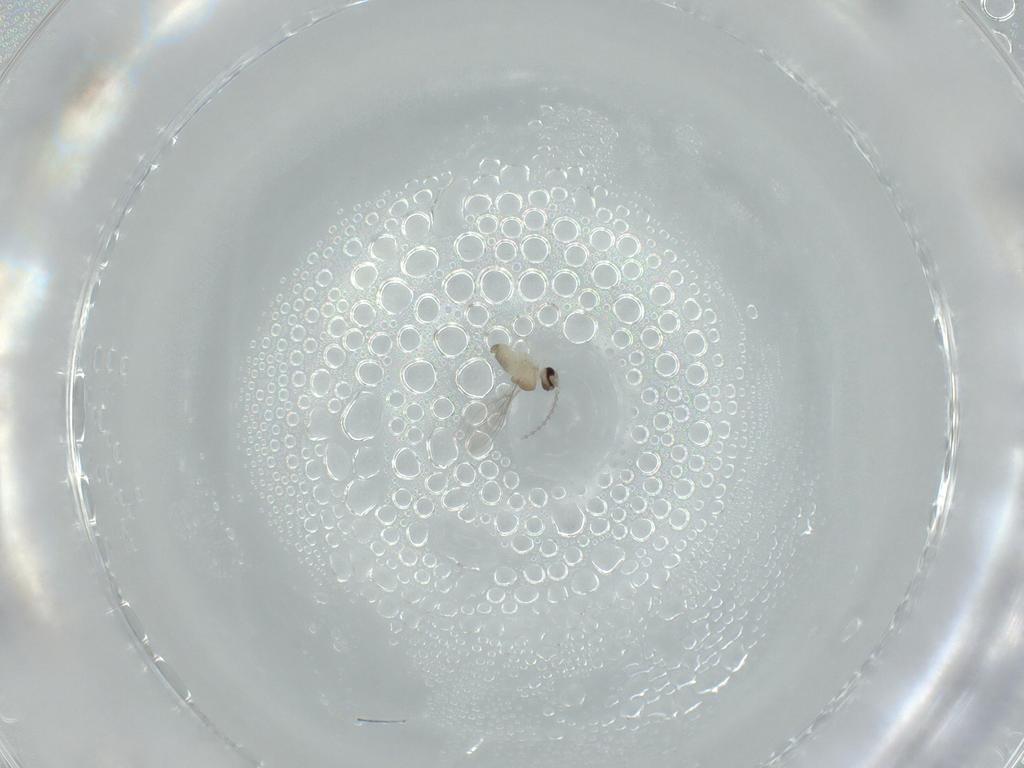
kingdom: Animalia
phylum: Arthropoda
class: Insecta
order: Diptera
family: Cecidomyiidae
